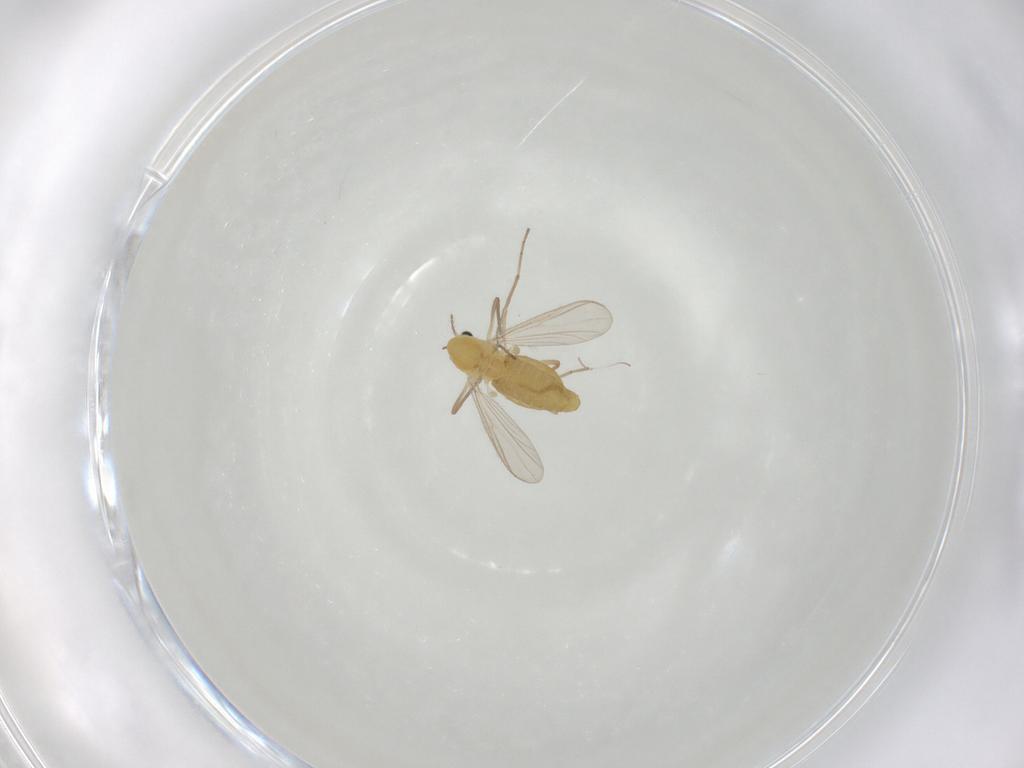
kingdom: Animalia
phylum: Arthropoda
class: Insecta
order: Diptera
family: Chironomidae
